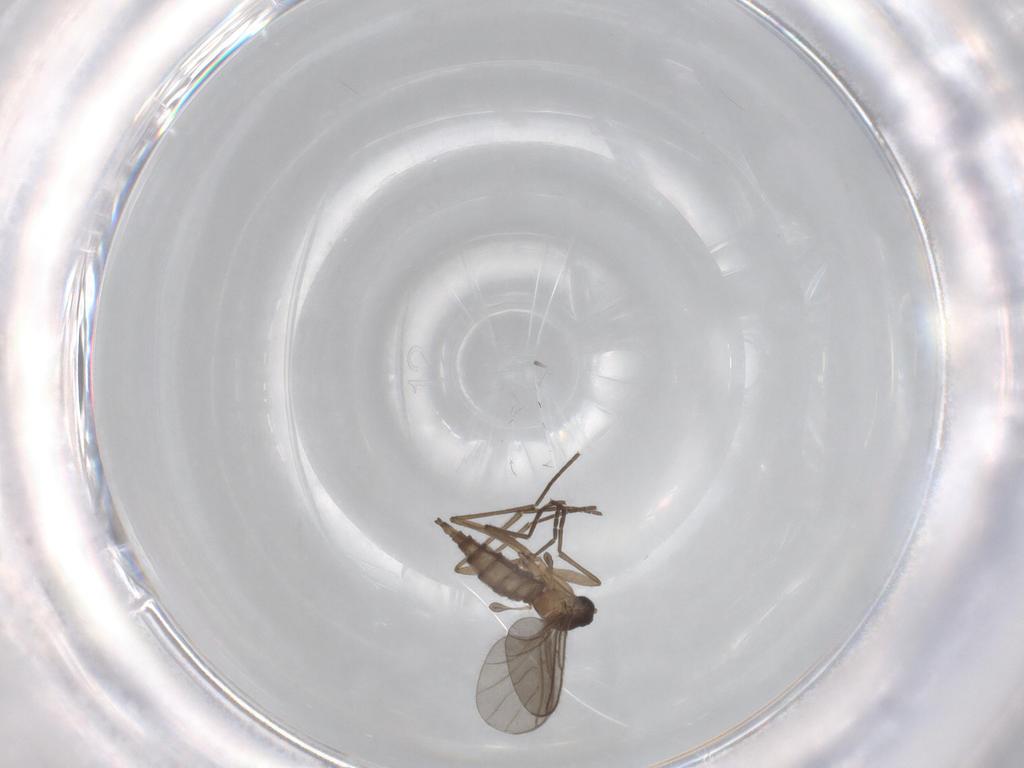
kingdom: Animalia
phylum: Arthropoda
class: Insecta
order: Diptera
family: Sciaridae
